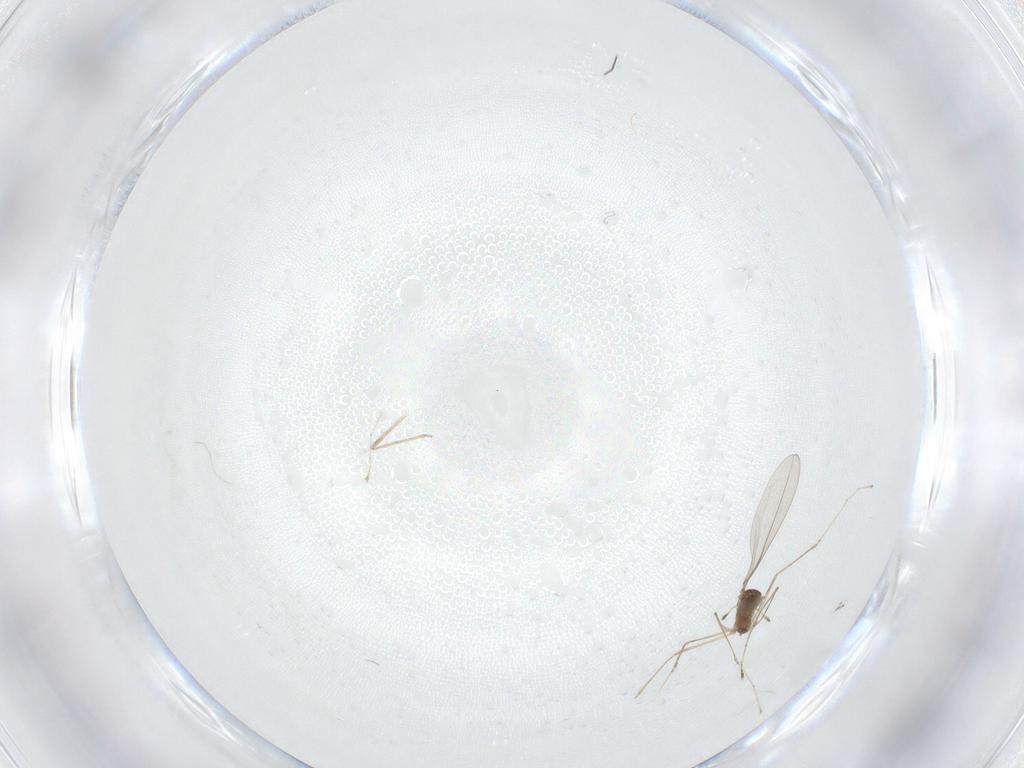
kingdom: Animalia
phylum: Arthropoda
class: Insecta
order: Diptera
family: Cecidomyiidae
